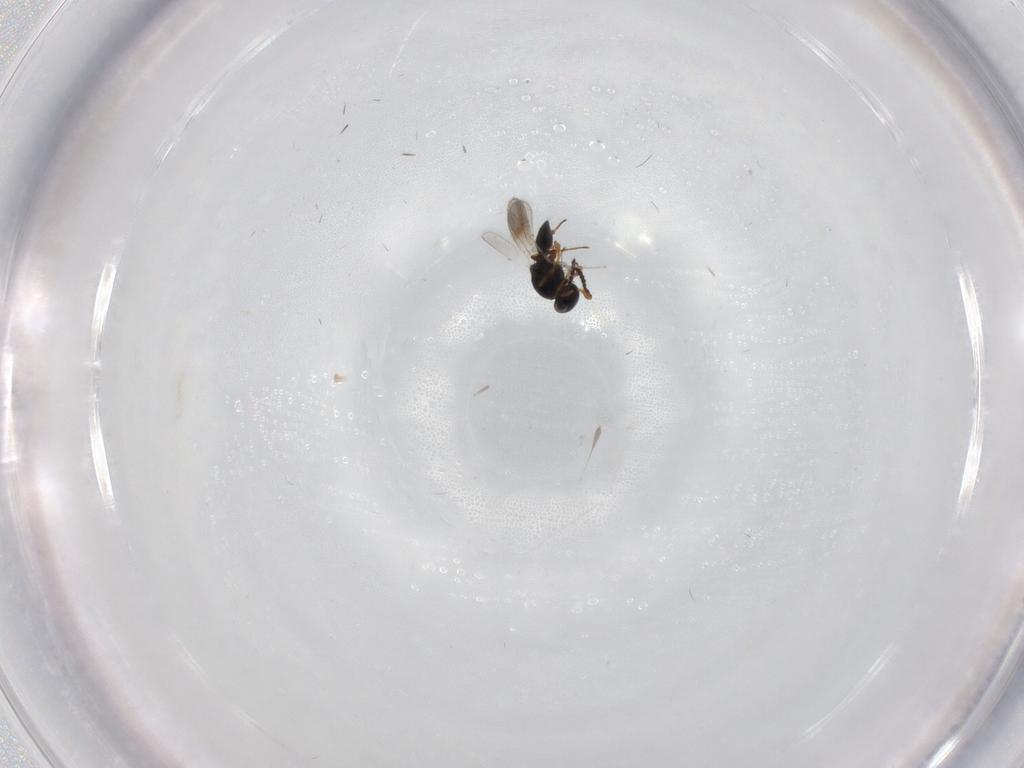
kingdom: Animalia
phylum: Arthropoda
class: Insecta
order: Hymenoptera
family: Platygastridae
